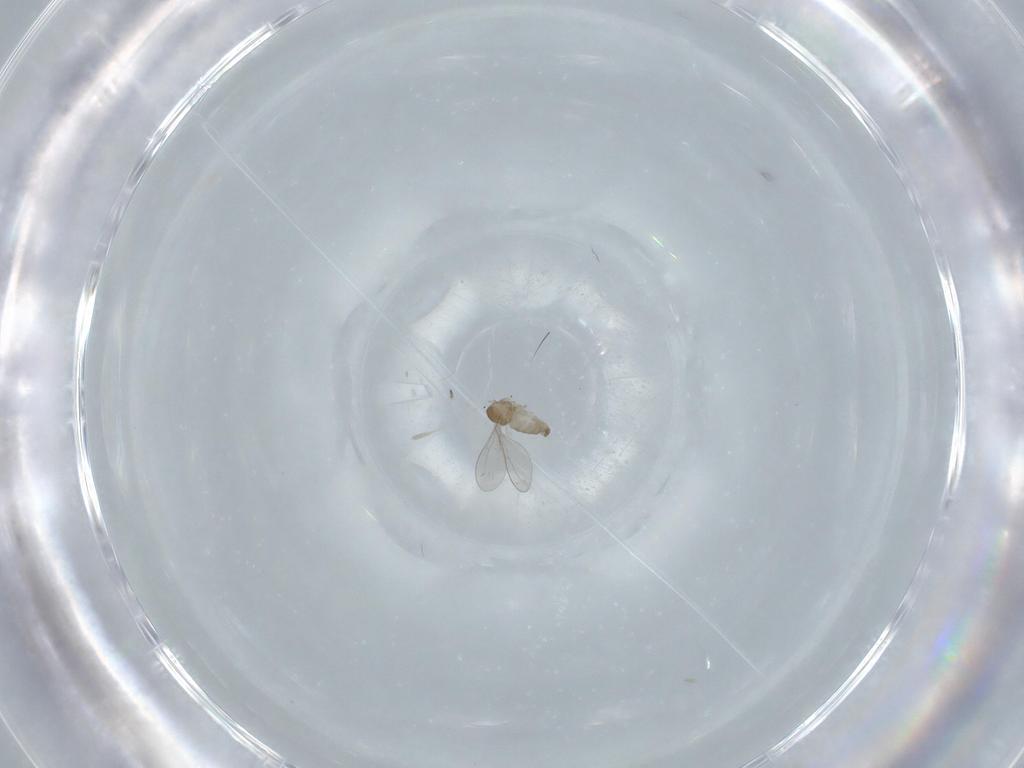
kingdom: Animalia
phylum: Arthropoda
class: Insecta
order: Diptera
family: Cecidomyiidae
